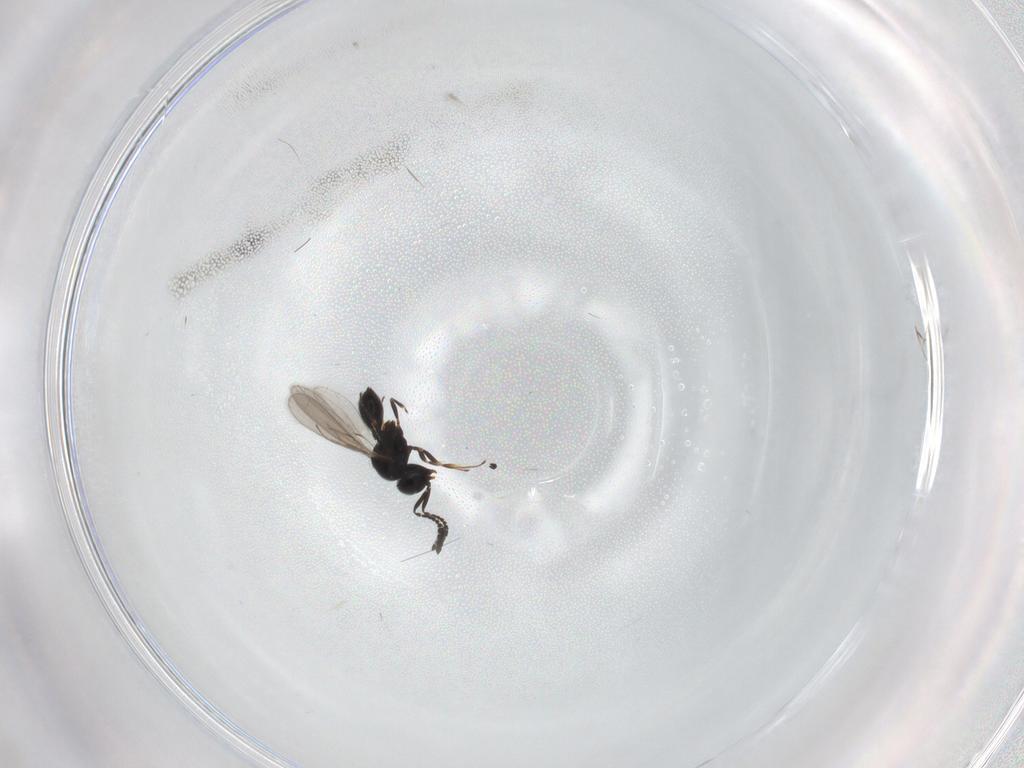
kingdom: Animalia
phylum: Arthropoda
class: Insecta
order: Hymenoptera
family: Scelionidae
